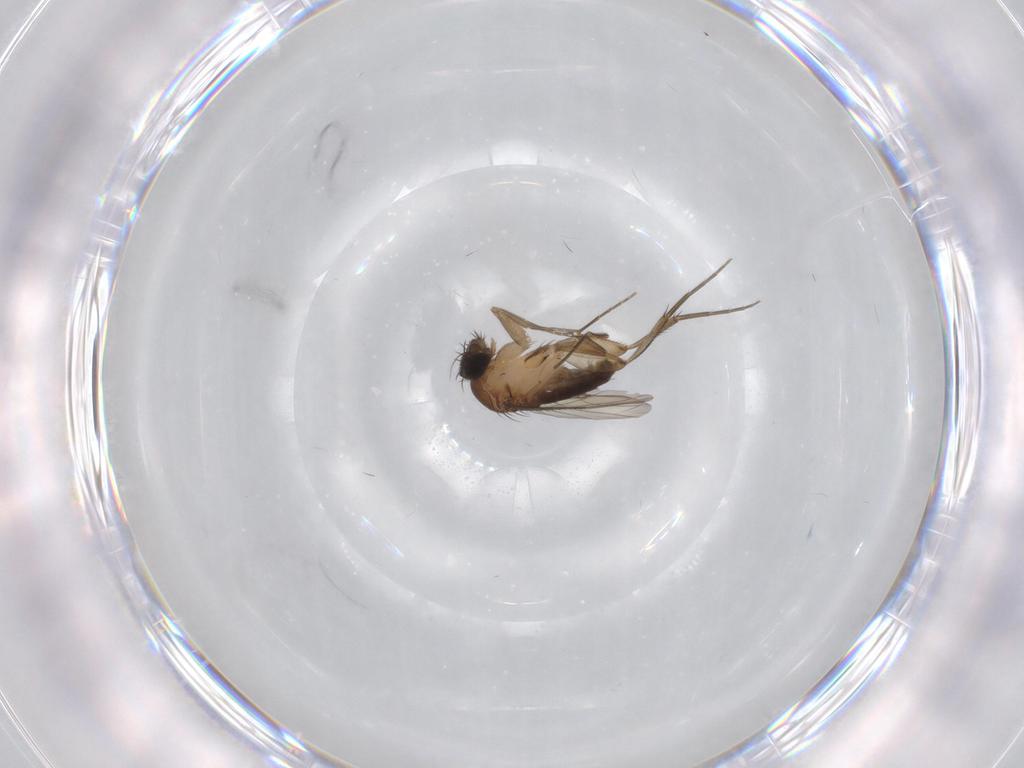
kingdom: Animalia
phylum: Arthropoda
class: Insecta
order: Diptera
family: Phoridae
